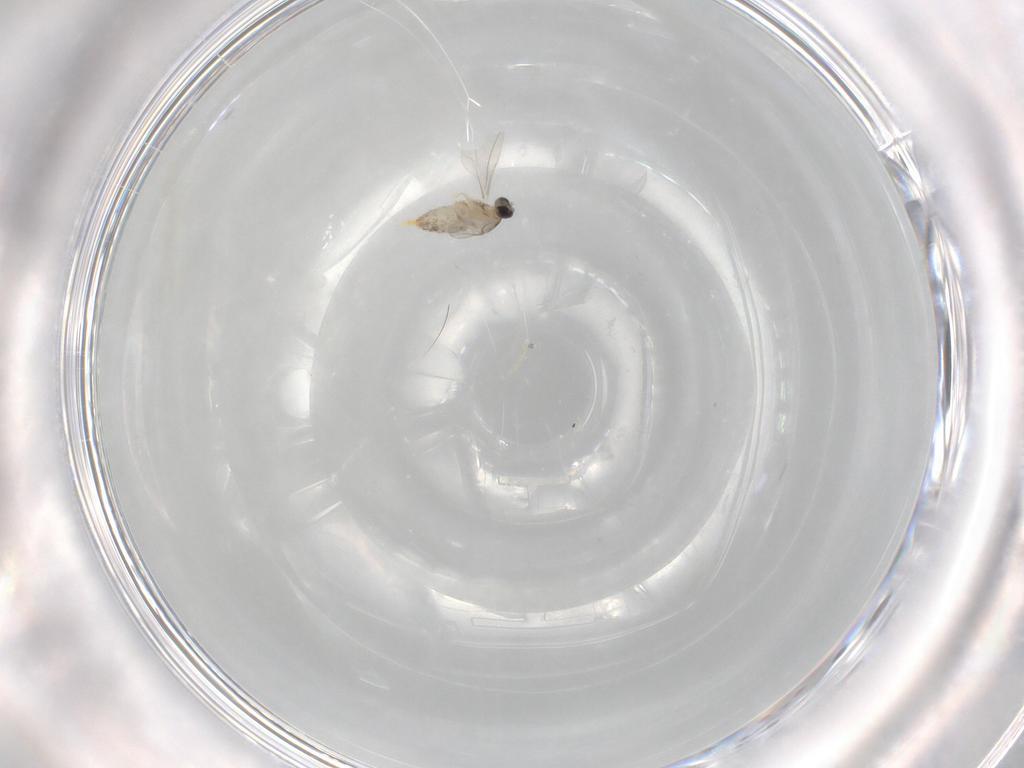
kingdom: Animalia
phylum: Arthropoda
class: Insecta
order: Diptera
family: Cecidomyiidae
